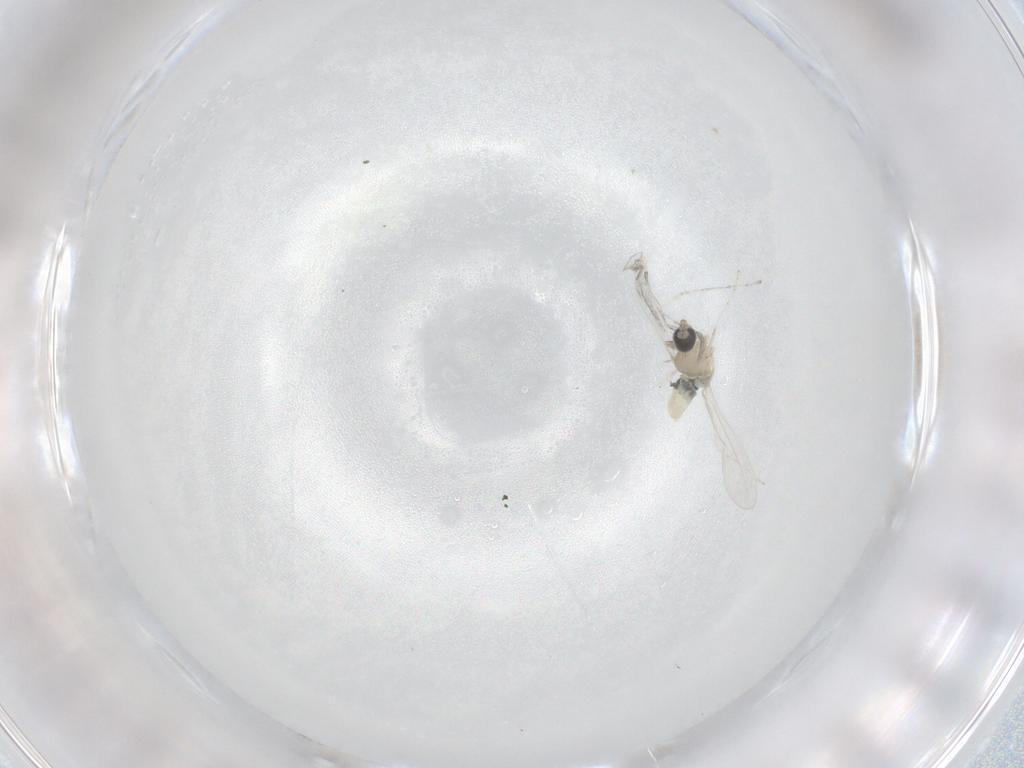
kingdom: Animalia
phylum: Arthropoda
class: Insecta
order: Diptera
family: Cecidomyiidae
